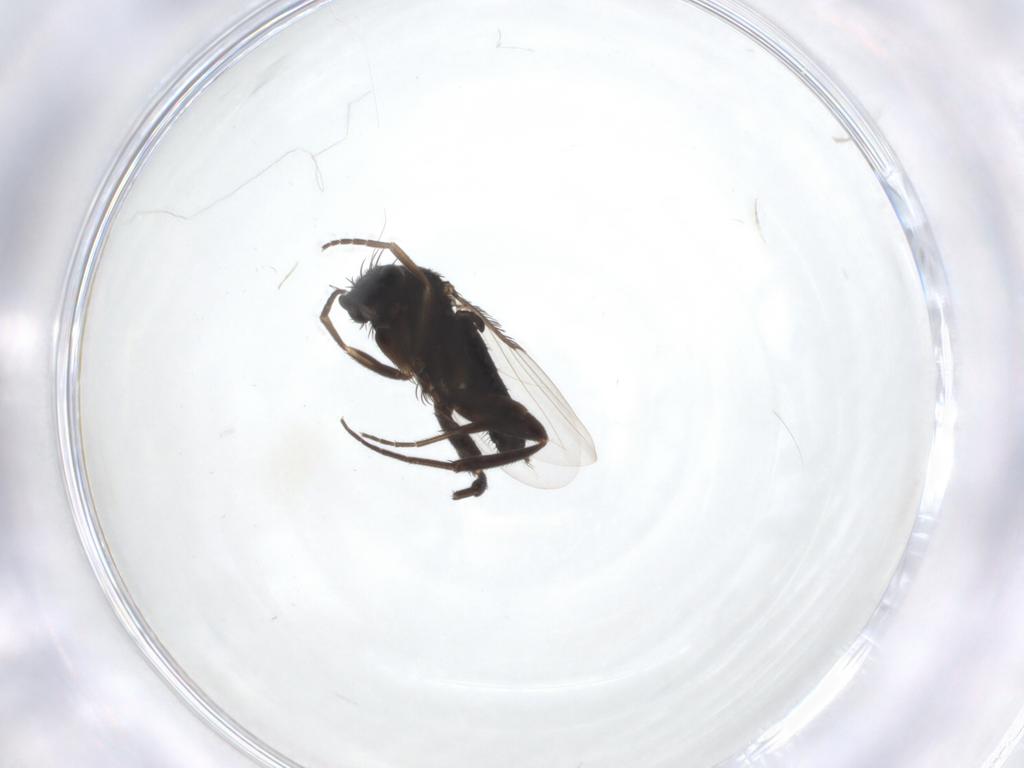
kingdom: Animalia
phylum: Arthropoda
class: Insecta
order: Diptera
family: Phoridae
